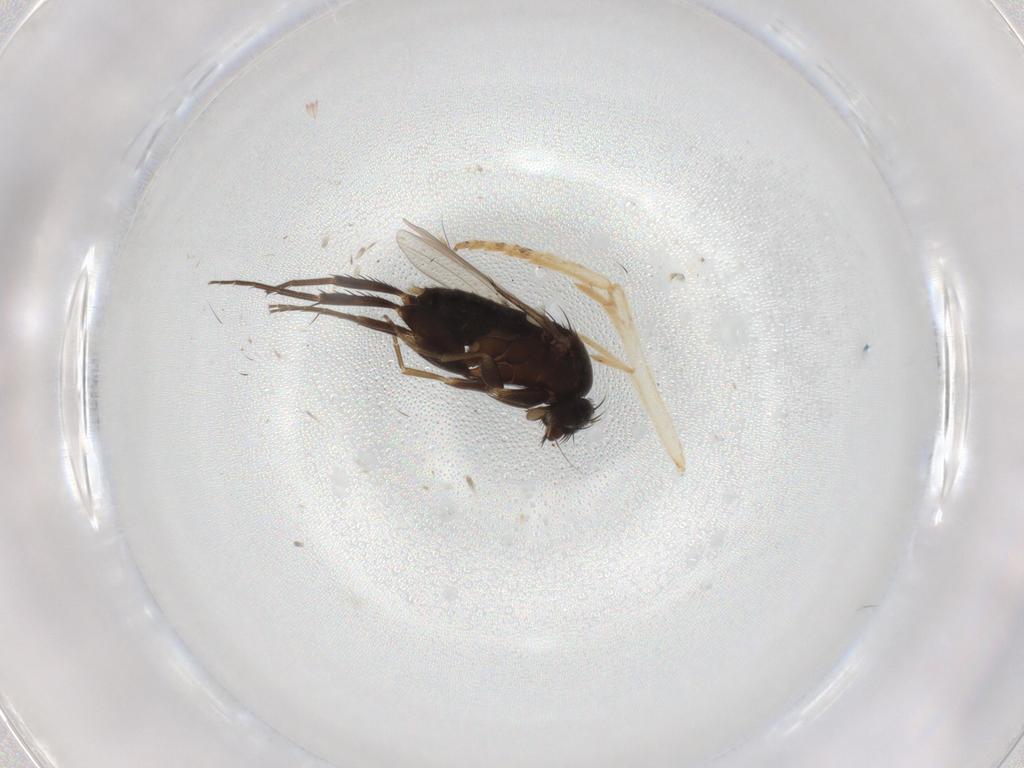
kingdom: Animalia
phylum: Arthropoda
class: Insecta
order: Diptera
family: Phoridae
